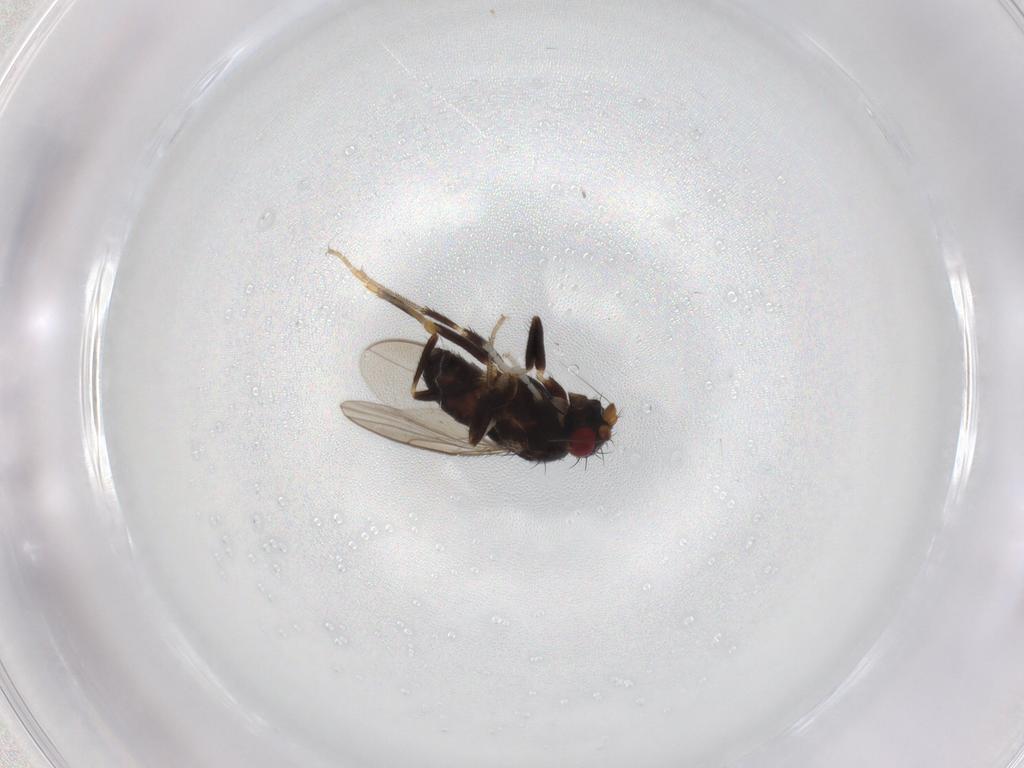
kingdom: Animalia
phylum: Arthropoda
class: Insecta
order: Diptera
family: Sphaeroceridae
